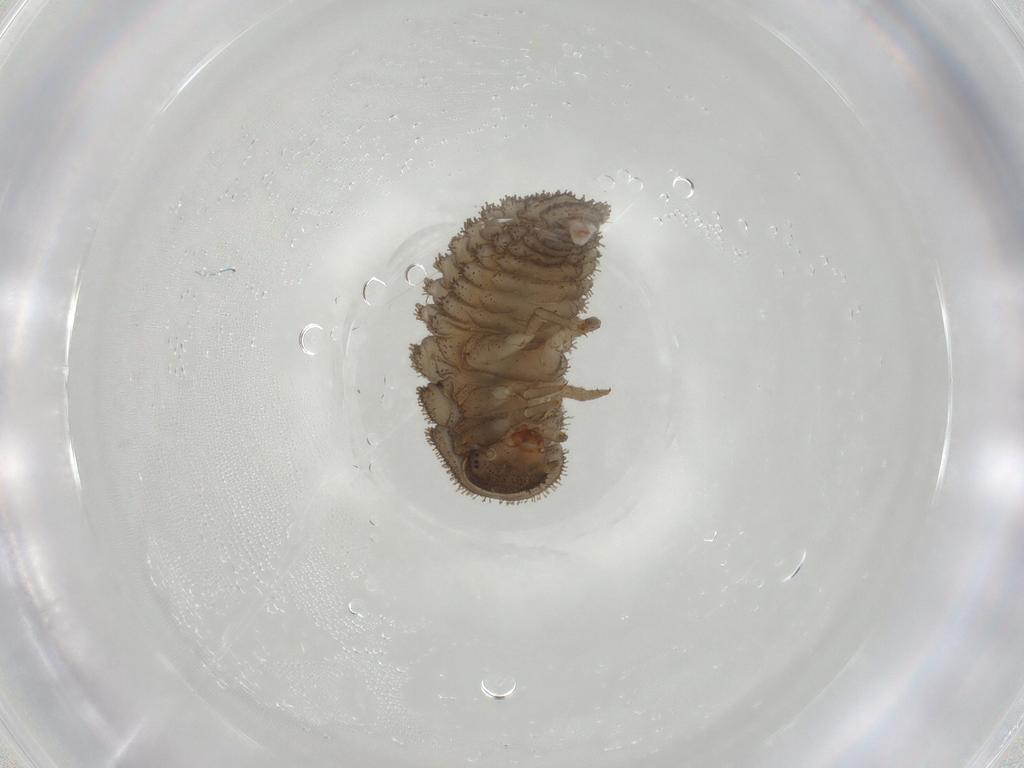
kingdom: Animalia
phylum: Arthropoda
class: Insecta
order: Coleoptera
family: Endomychidae
